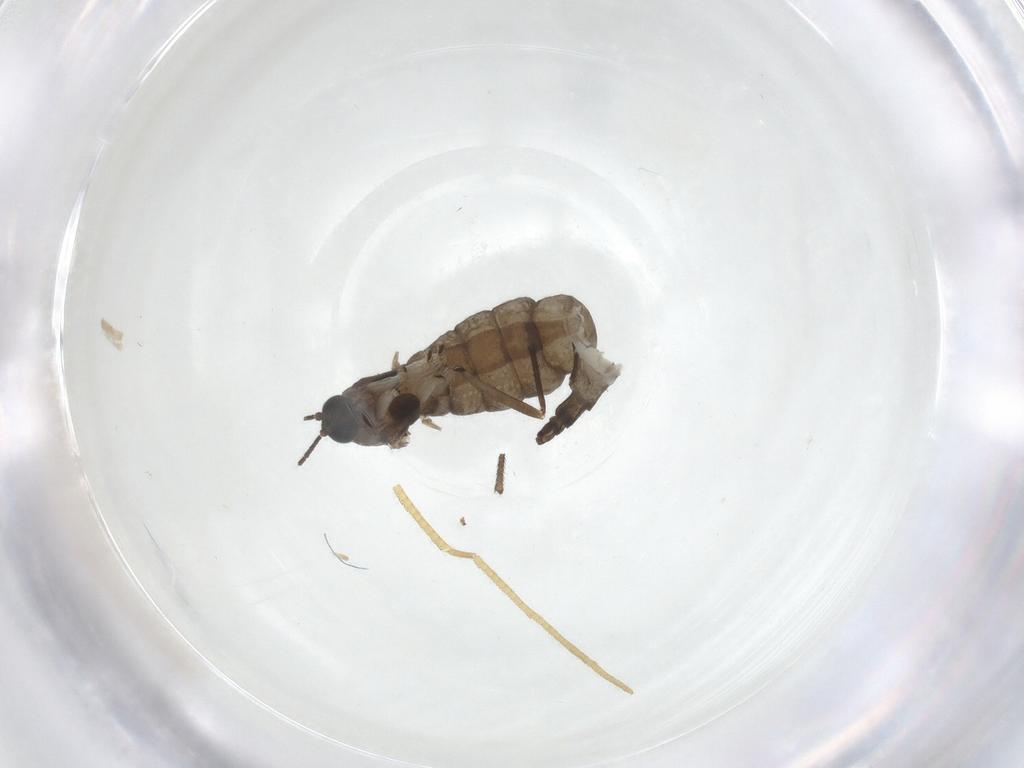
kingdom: Animalia
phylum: Arthropoda
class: Insecta
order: Diptera
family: Sciaridae
